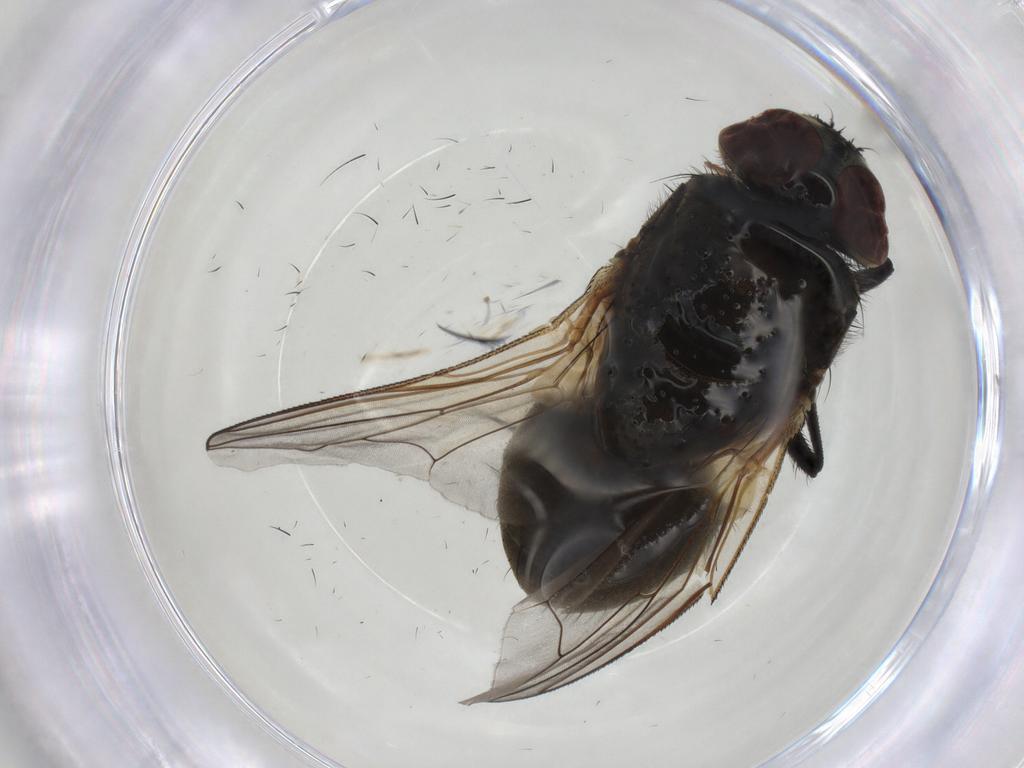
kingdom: Animalia
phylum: Arthropoda
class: Insecta
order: Diptera
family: Muscidae
